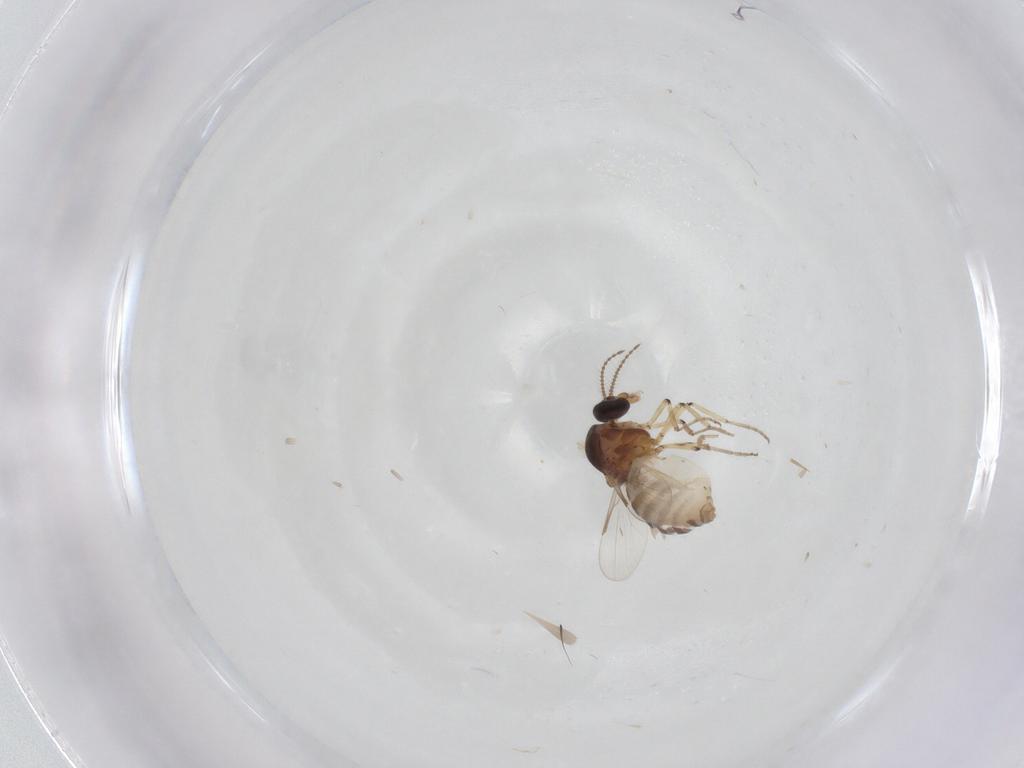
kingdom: Animalia
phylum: Arthropoda
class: Insecta
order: Diptera
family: Ceratopogonidae
